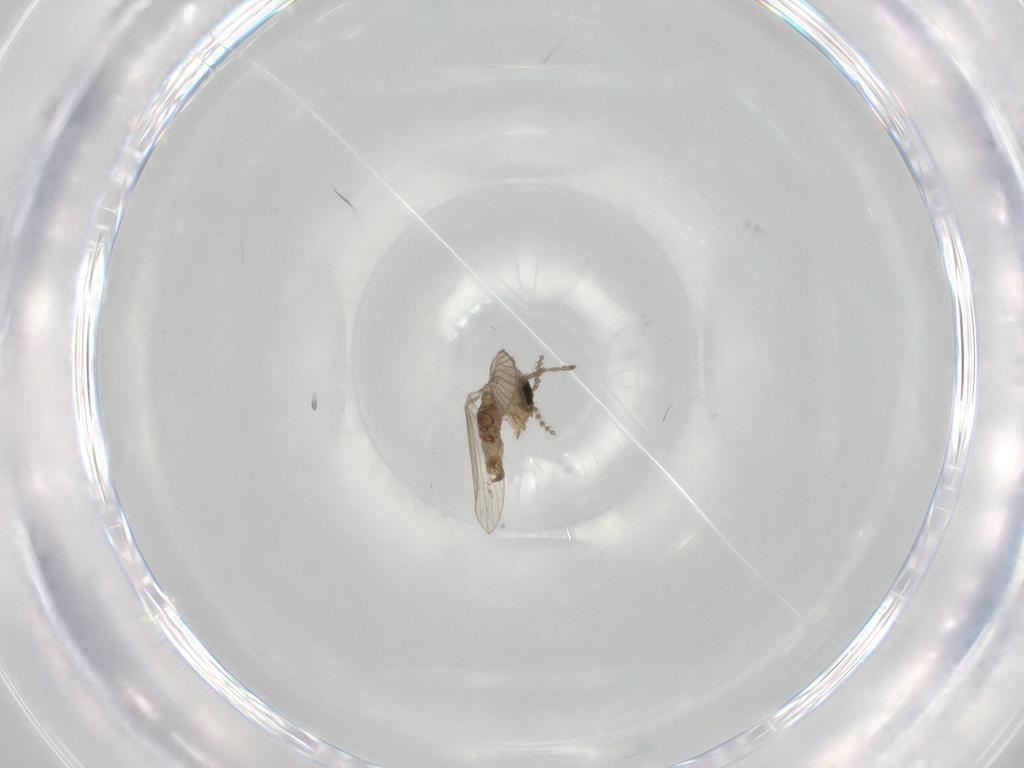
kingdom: Animalia
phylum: Arthropoda
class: Insecta
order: Diptera
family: Psychodidae
